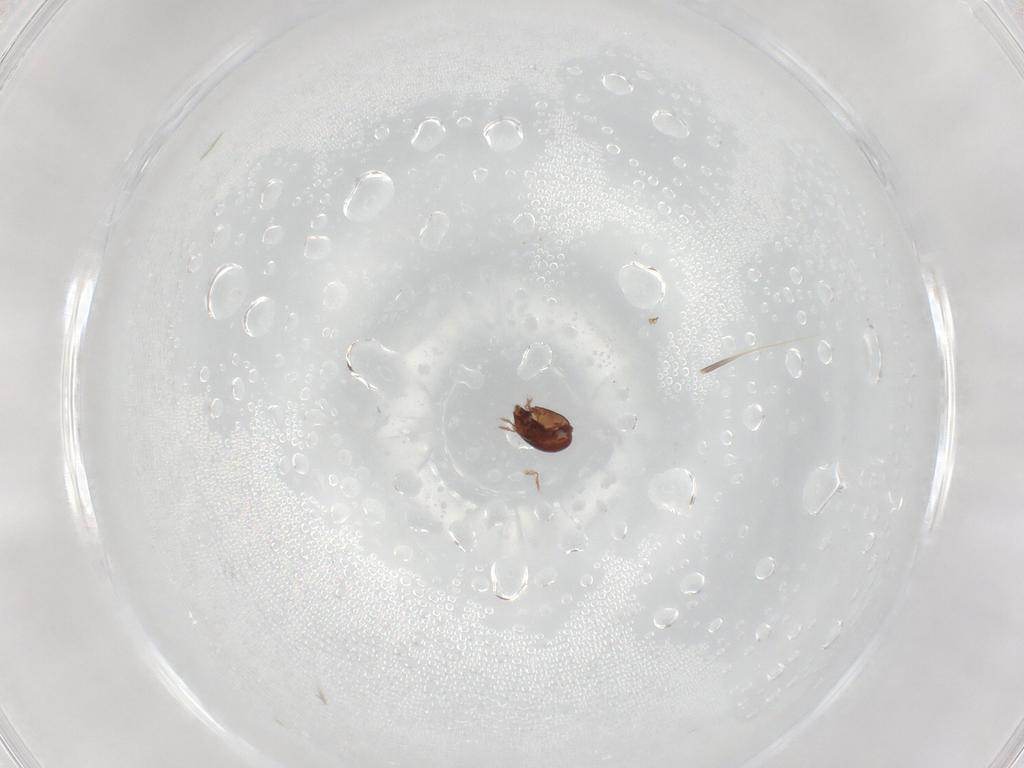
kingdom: Animalia
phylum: Arthropoda
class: Arachnida
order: Sarcoptiformes
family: Galumnidae
